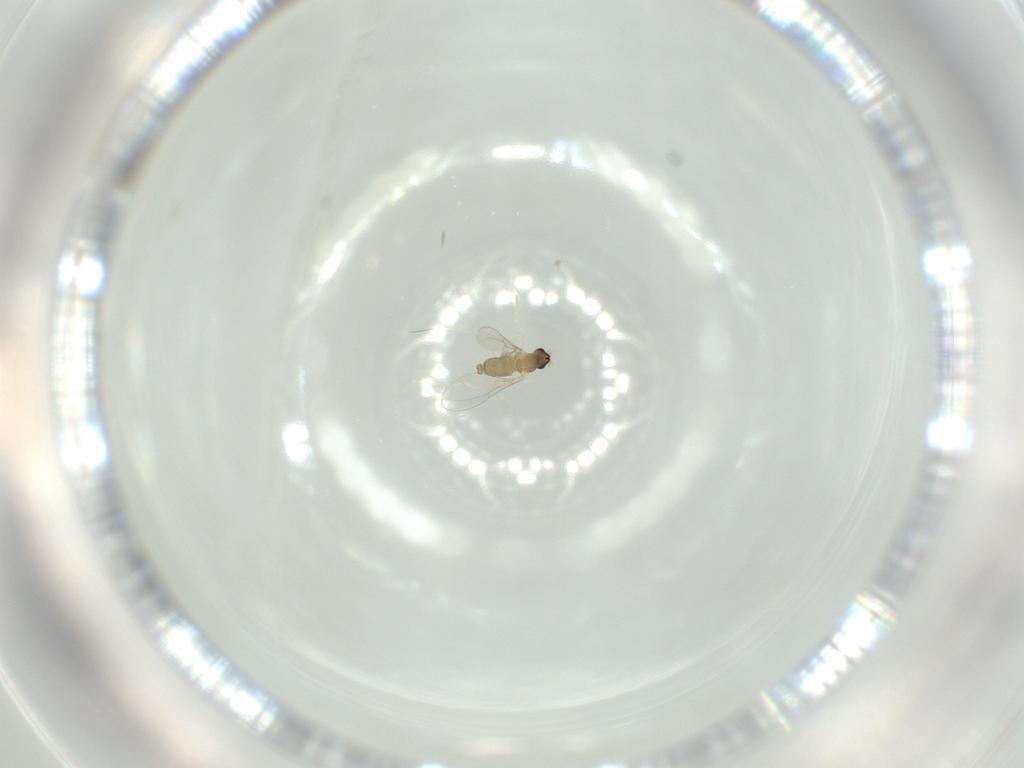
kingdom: Animalia
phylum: Arthropoda
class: Insecta
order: Diptera
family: Sciaridae
